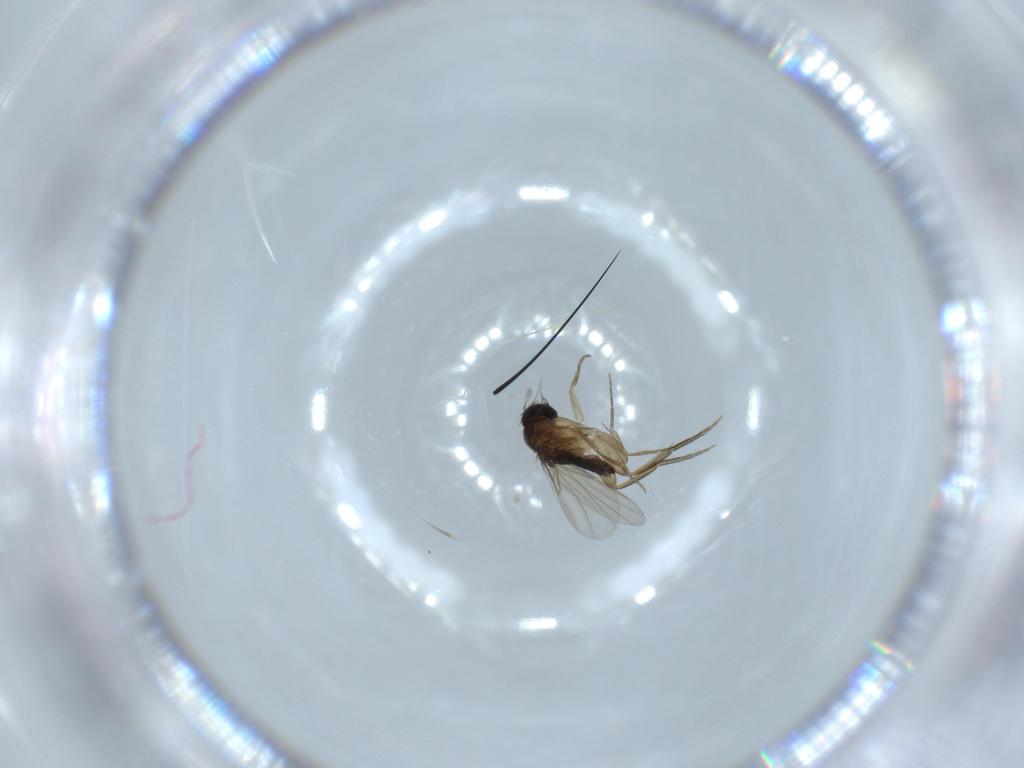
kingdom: Animalia
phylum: Arthropoda
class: Insecta
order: Diptera
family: Phoridae
